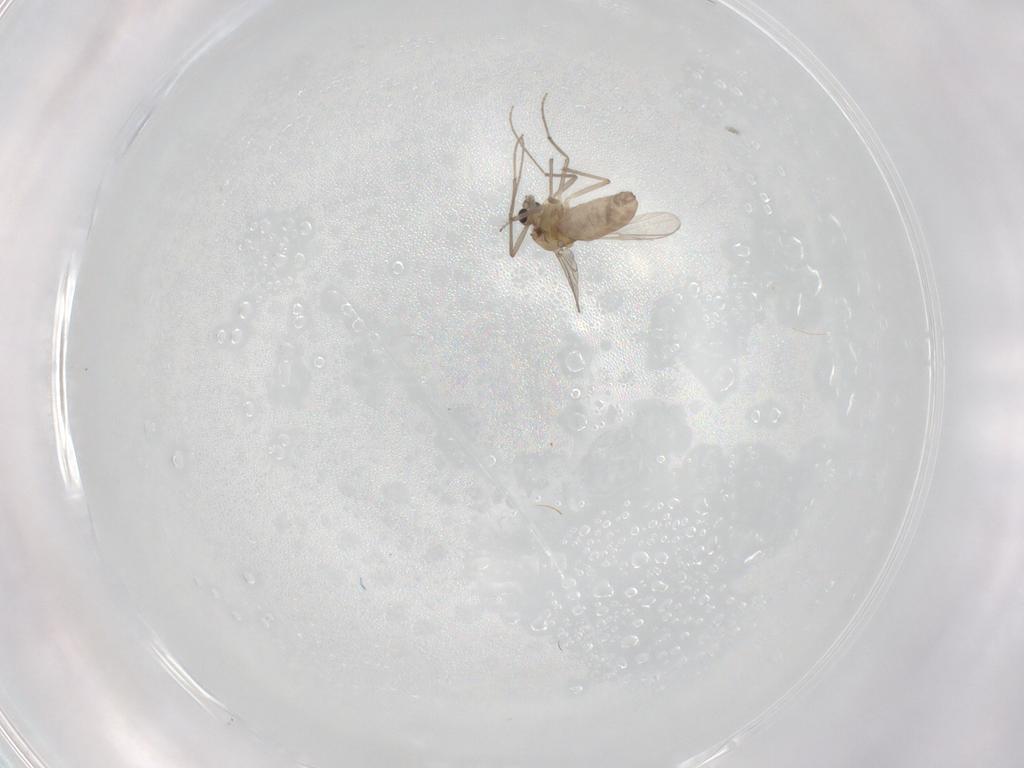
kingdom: Animalia
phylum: Arthropoda
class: Insecta
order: Diptera
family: Chironomidae
